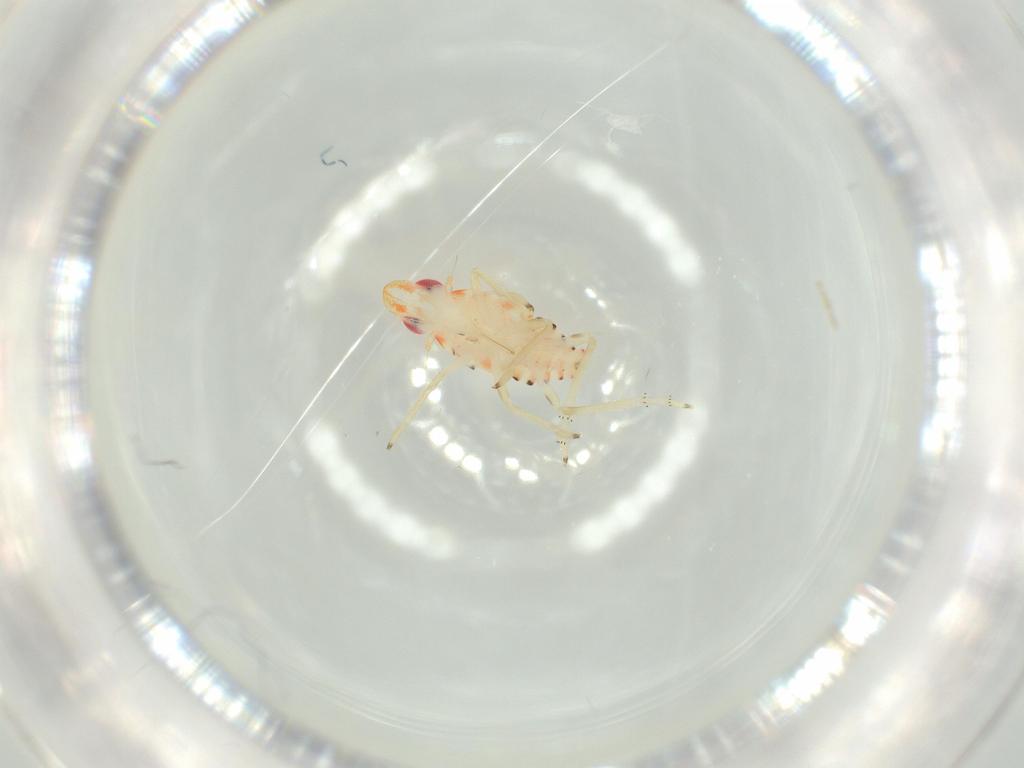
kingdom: Animalia
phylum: Arthropoda
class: Insecta
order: Hemiptera
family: Tropiduchidae
